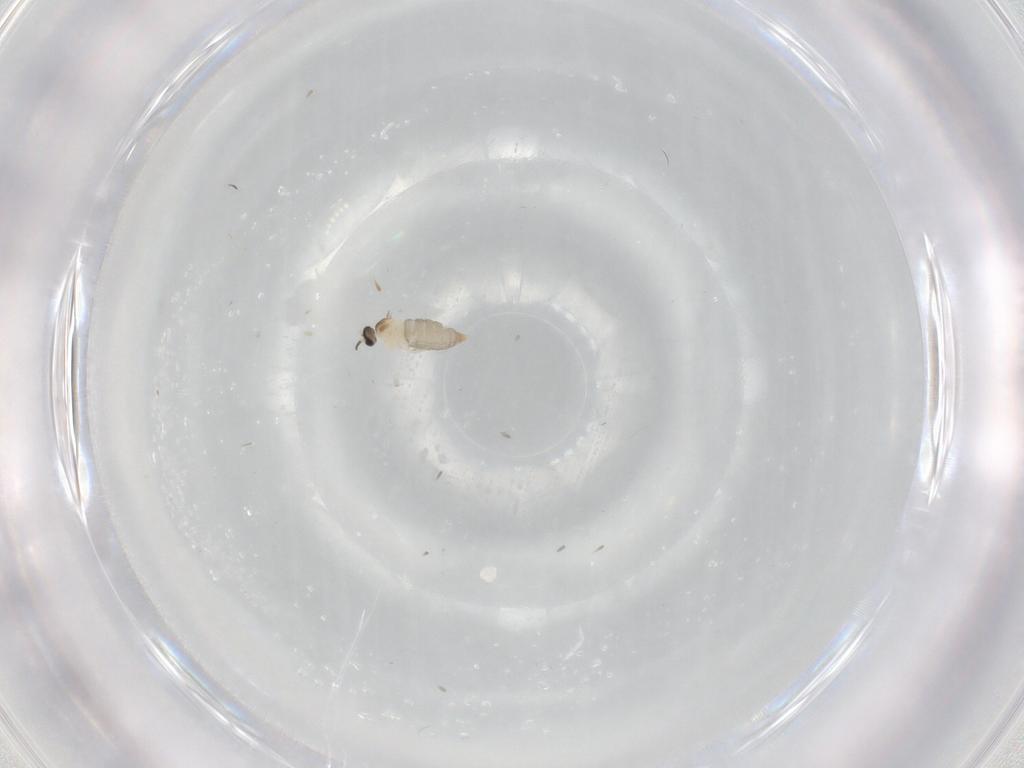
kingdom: Animalia
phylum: Arthropoda
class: Insecta
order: Diptera
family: Cecidomyiidae
